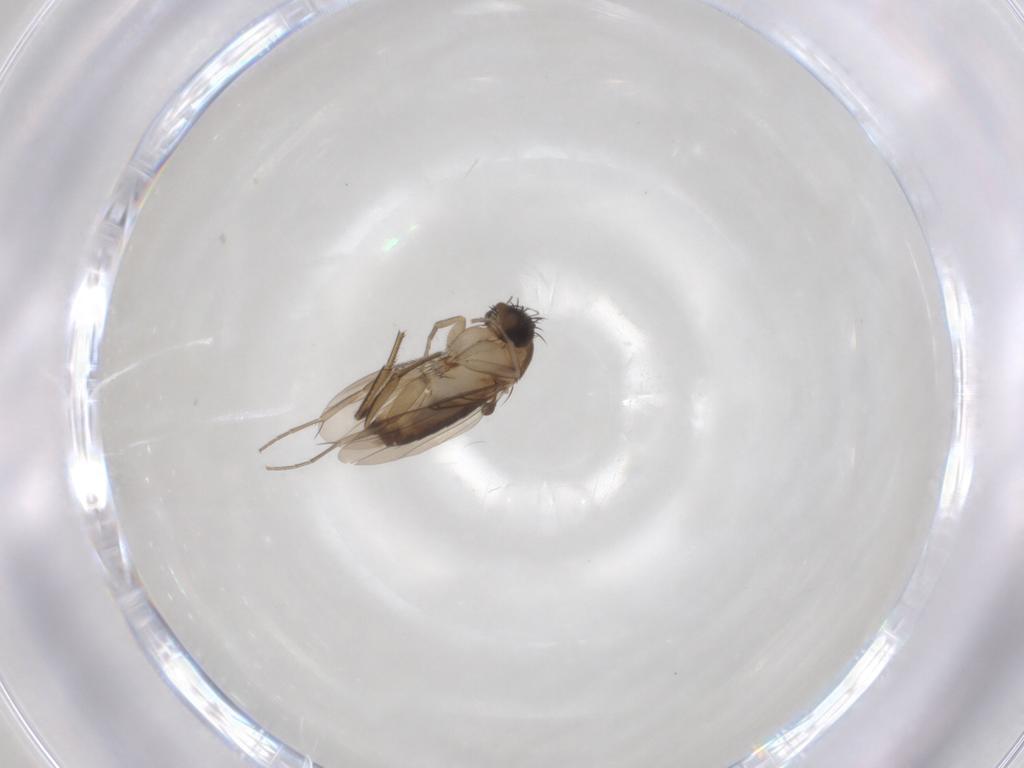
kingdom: Animalia
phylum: Arthropoda
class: Insecta
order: Diptera
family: Phoridae
